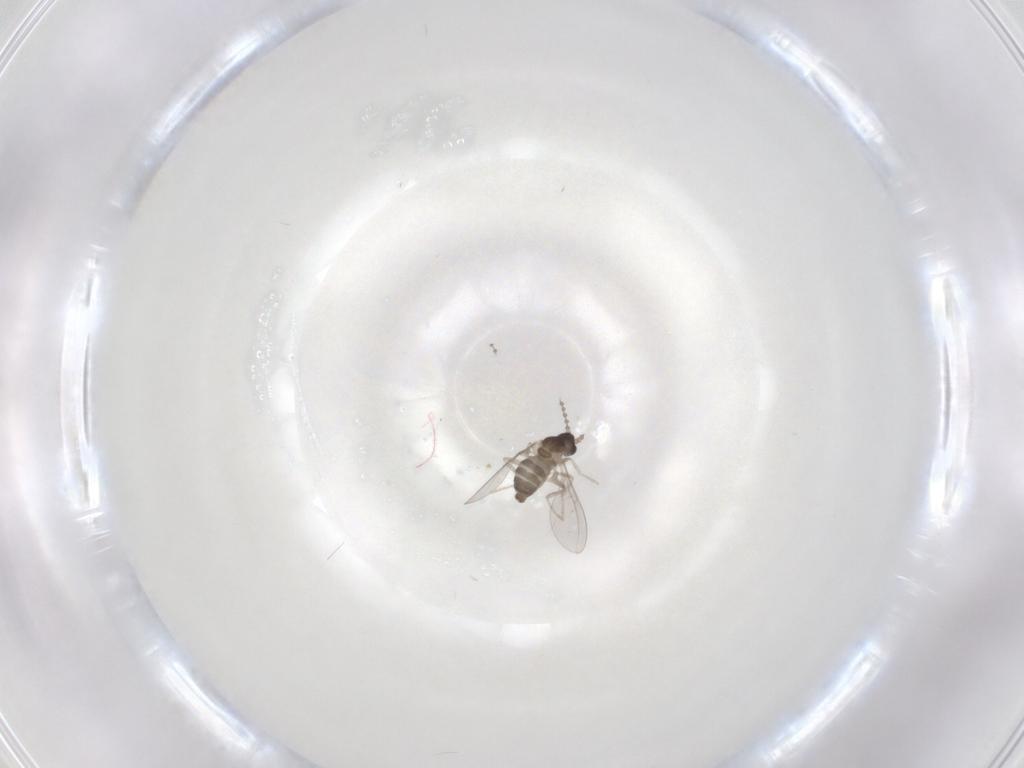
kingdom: Animalia
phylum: Arthropoda
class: Insecta
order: Diptera
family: Cecidomyiidae
